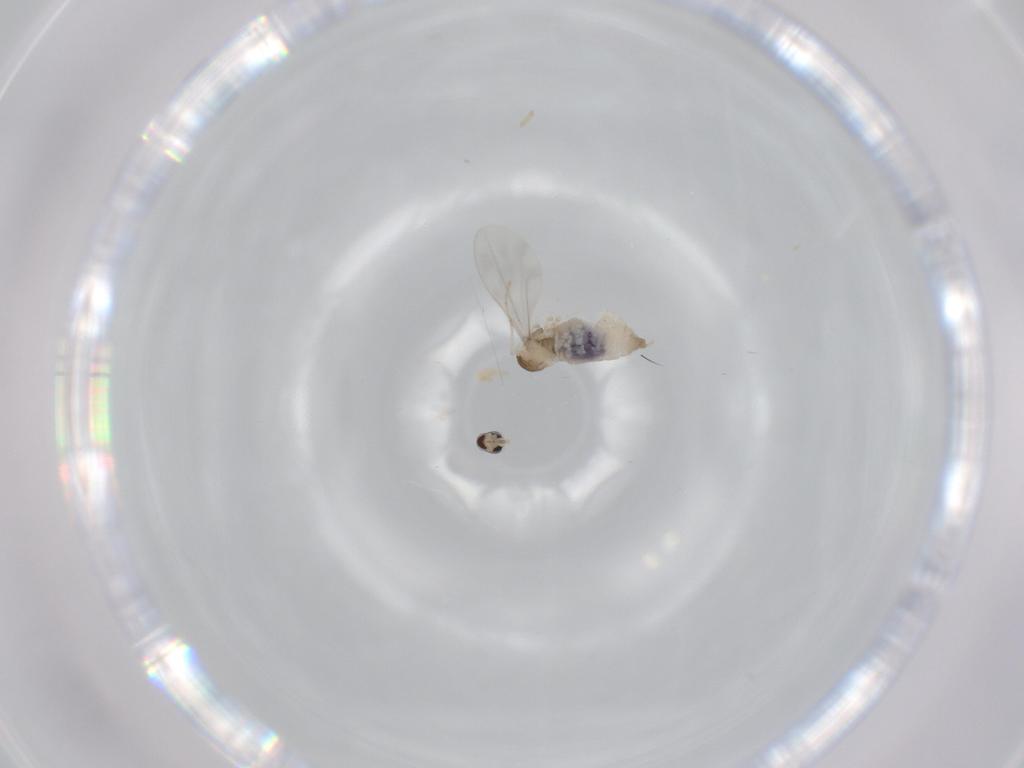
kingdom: Animalia
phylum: Arthropoda
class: Insecta
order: Diptera
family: Cecidomyiidae
